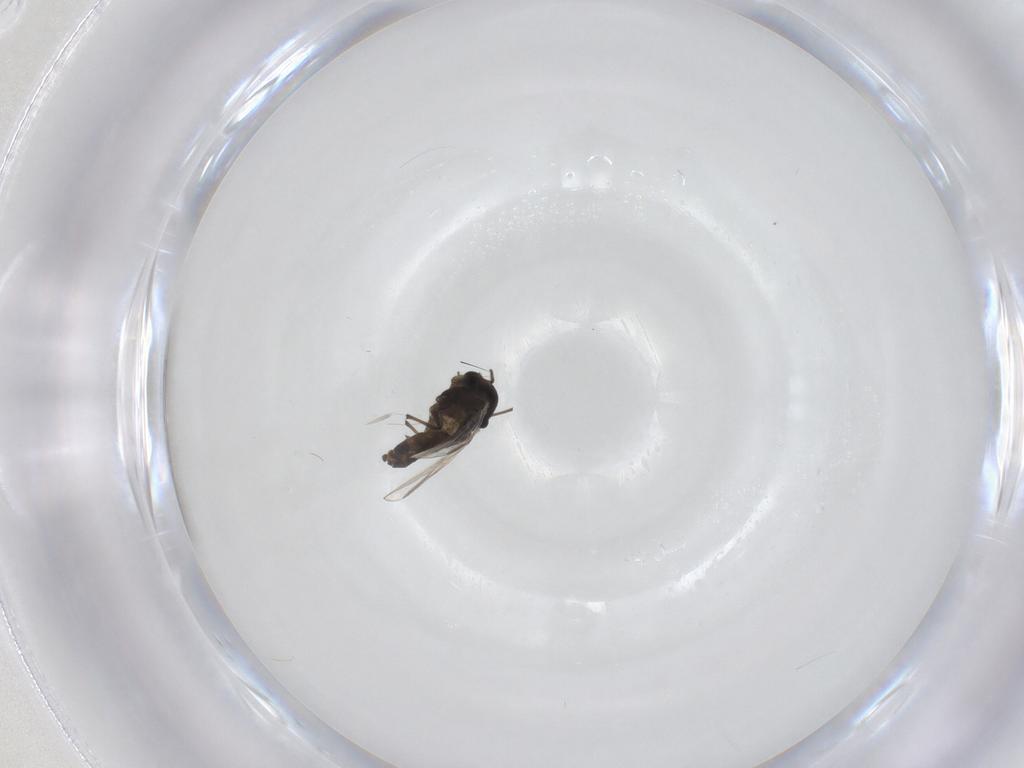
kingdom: Animalia
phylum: Arthropoda
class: Insecta
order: Diptera
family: Chironomidae
